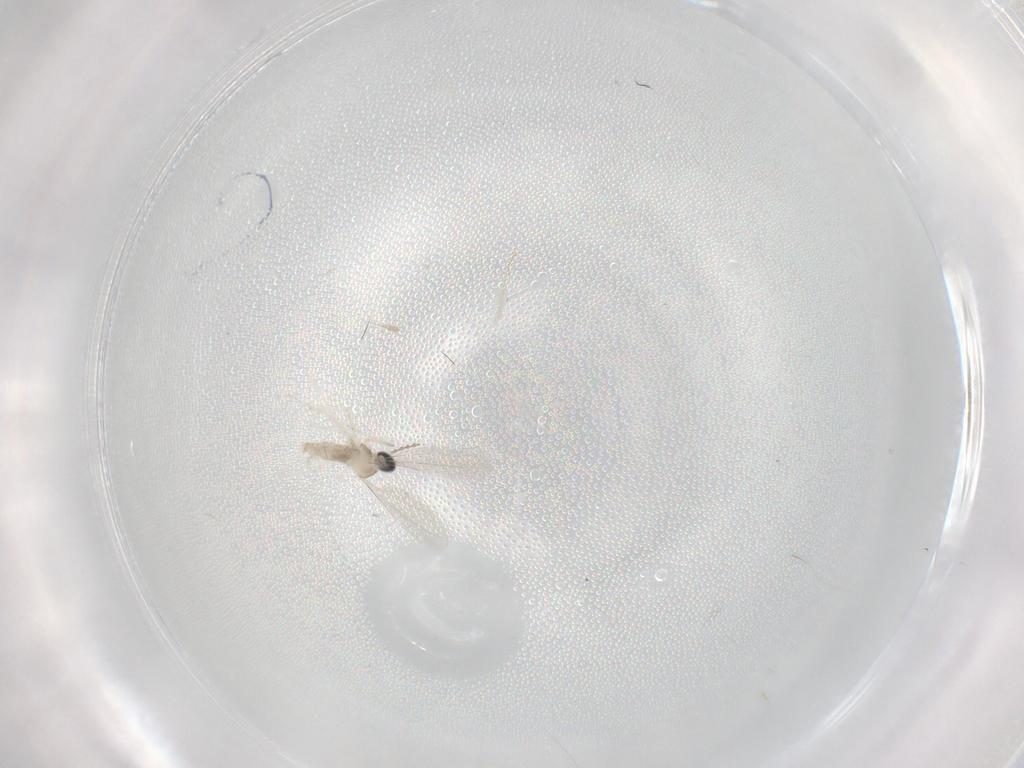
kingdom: Animalia
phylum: Arthropoda
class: Insecta
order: Diptera
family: Cecidomyiidae
